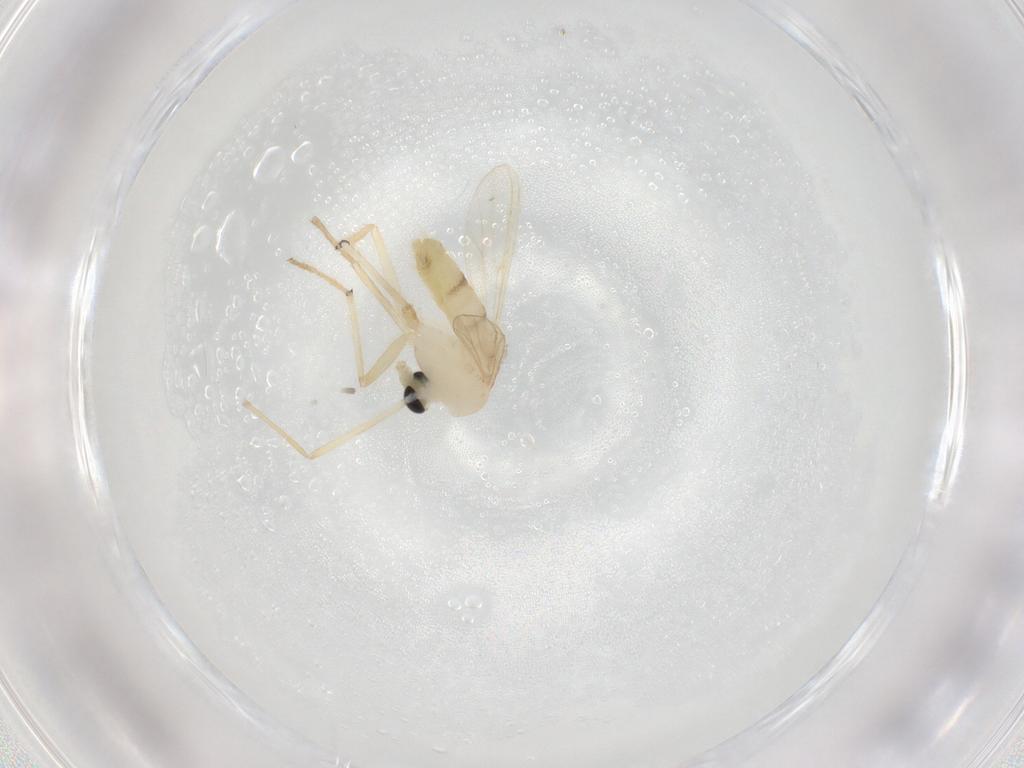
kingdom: Animalia
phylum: Arthropoda
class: Insecta
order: Diptera
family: Chironomidae
